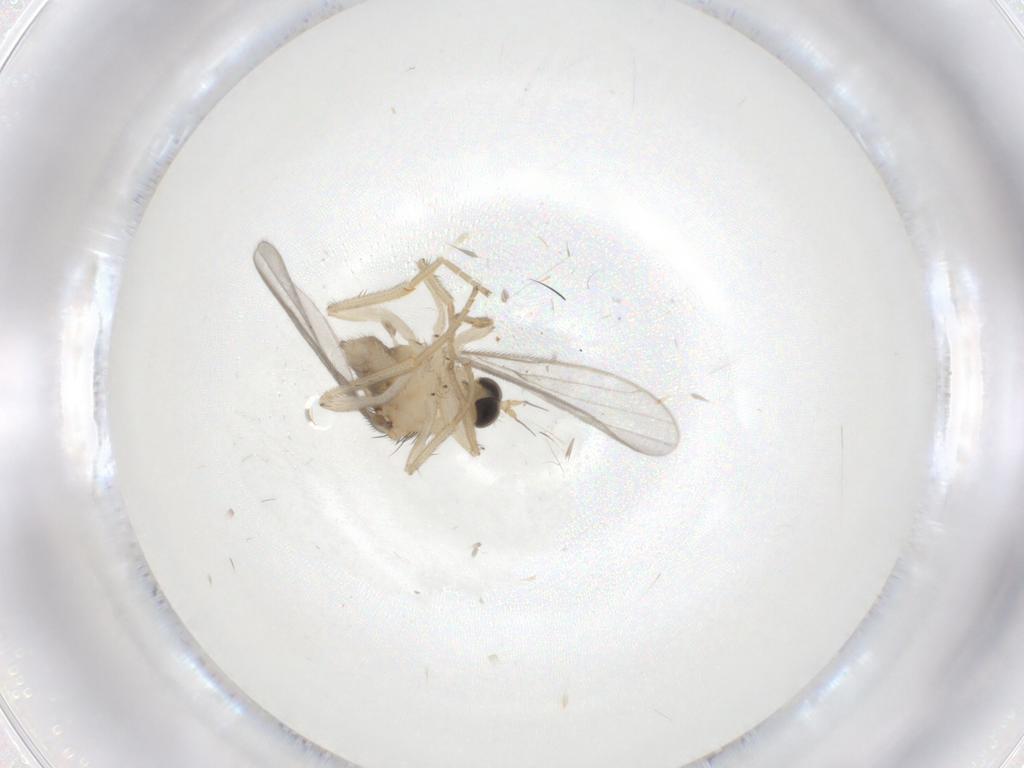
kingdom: Animalia
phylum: Arthropoda
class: Insecta
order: Diptera
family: Hybotidae
